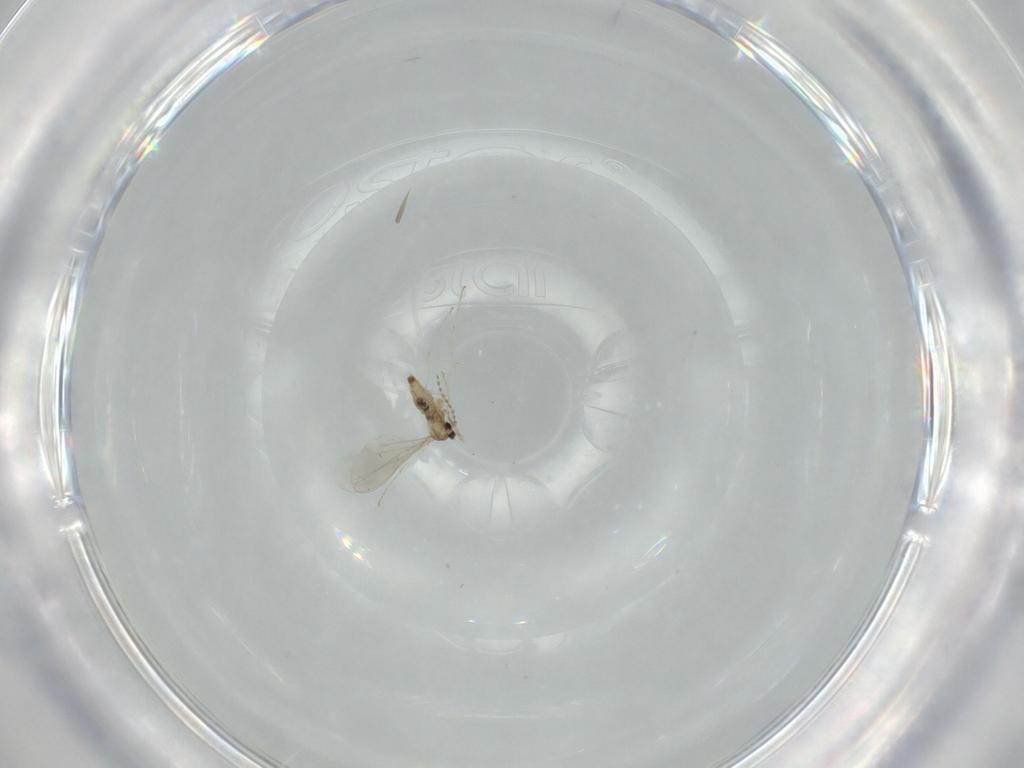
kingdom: Animalia
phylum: Arthropoda
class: Insecta
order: Diptera
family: Cecidomyiidae
